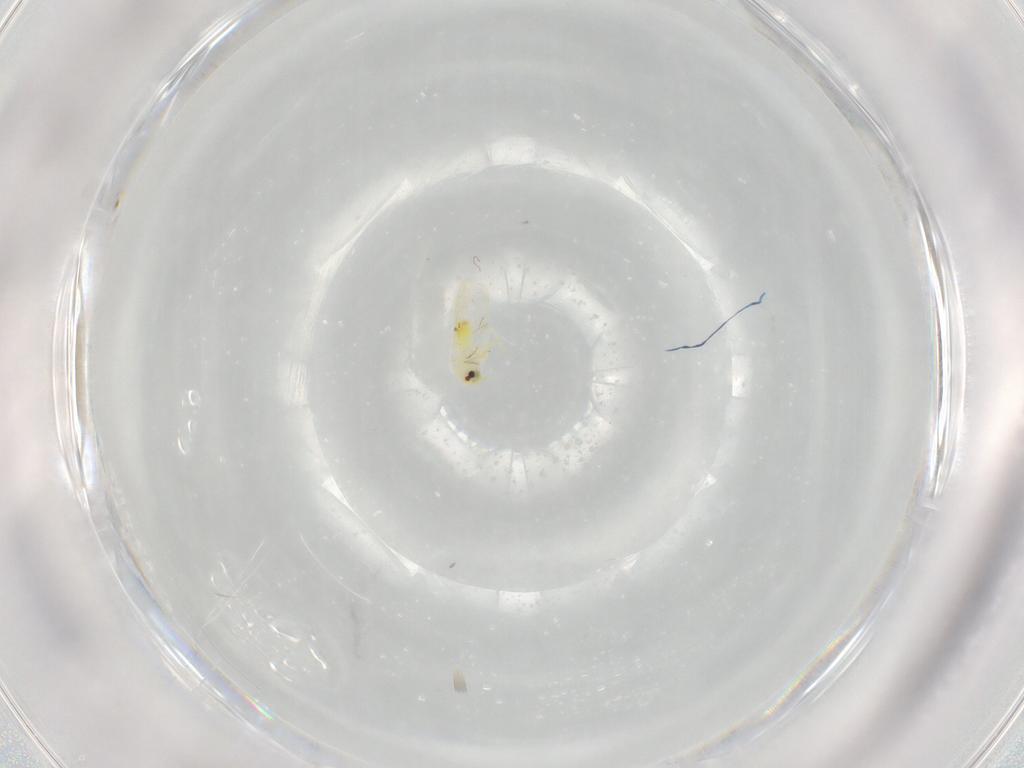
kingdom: Animalia
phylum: Arthropoda
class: Insecta
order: Hemiptera
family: Aleyrodidae
